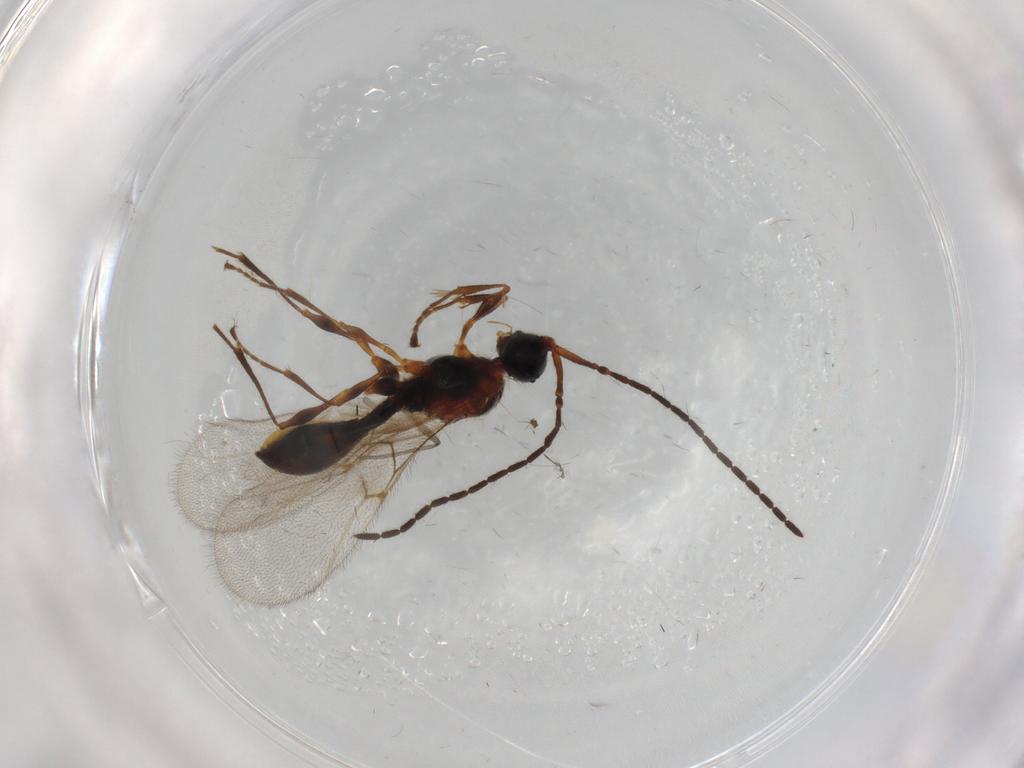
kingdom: Animalia
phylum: Arthropoda
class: Insecta
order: Hymenoptera
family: Diapriidae
